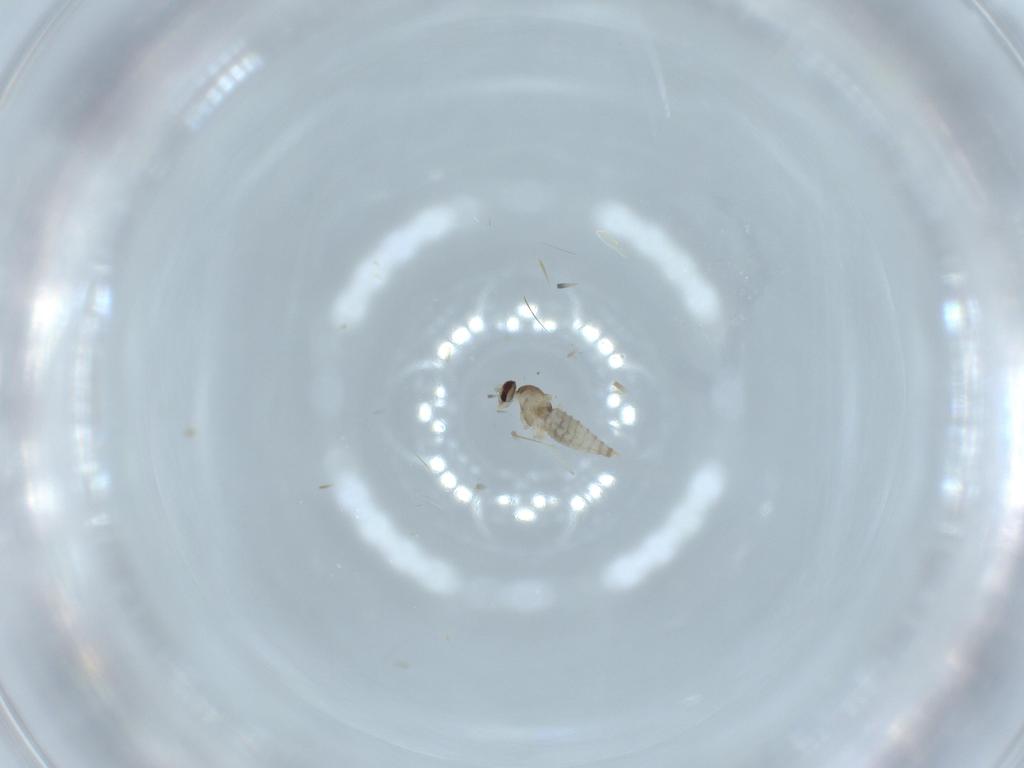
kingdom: Animalia
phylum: Arthropoda
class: Insecta
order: Diptera
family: Cecidomyiidae
